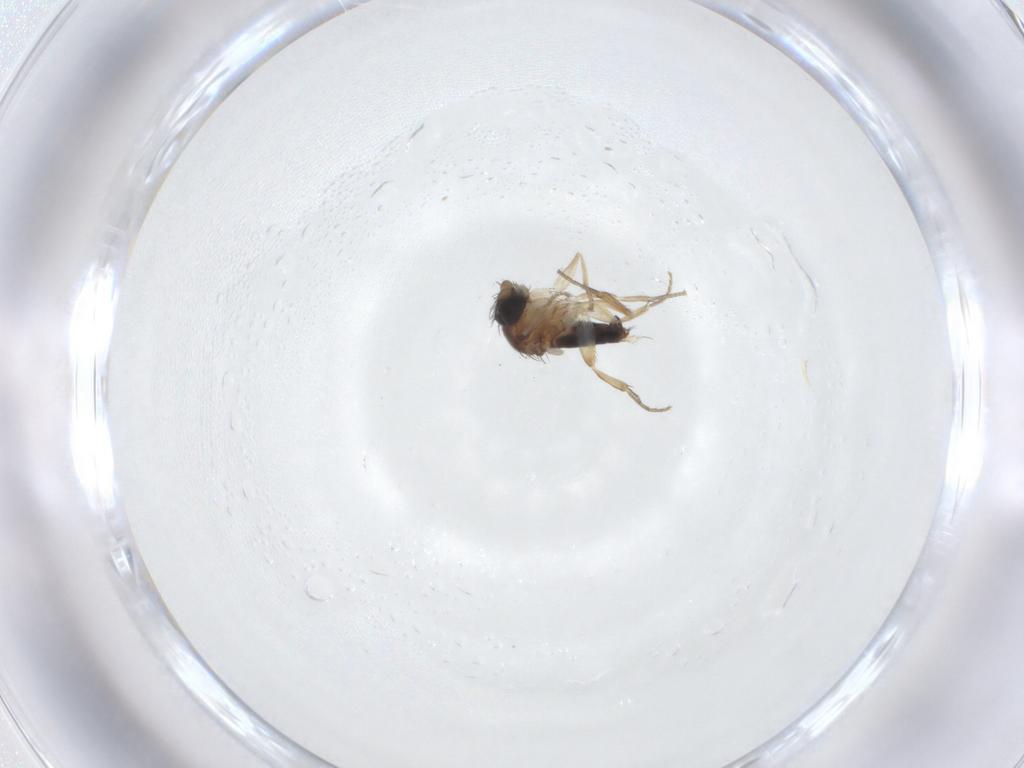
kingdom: Animalia
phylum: Arthropoda
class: Insecta
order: Diptera
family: Phoridae
